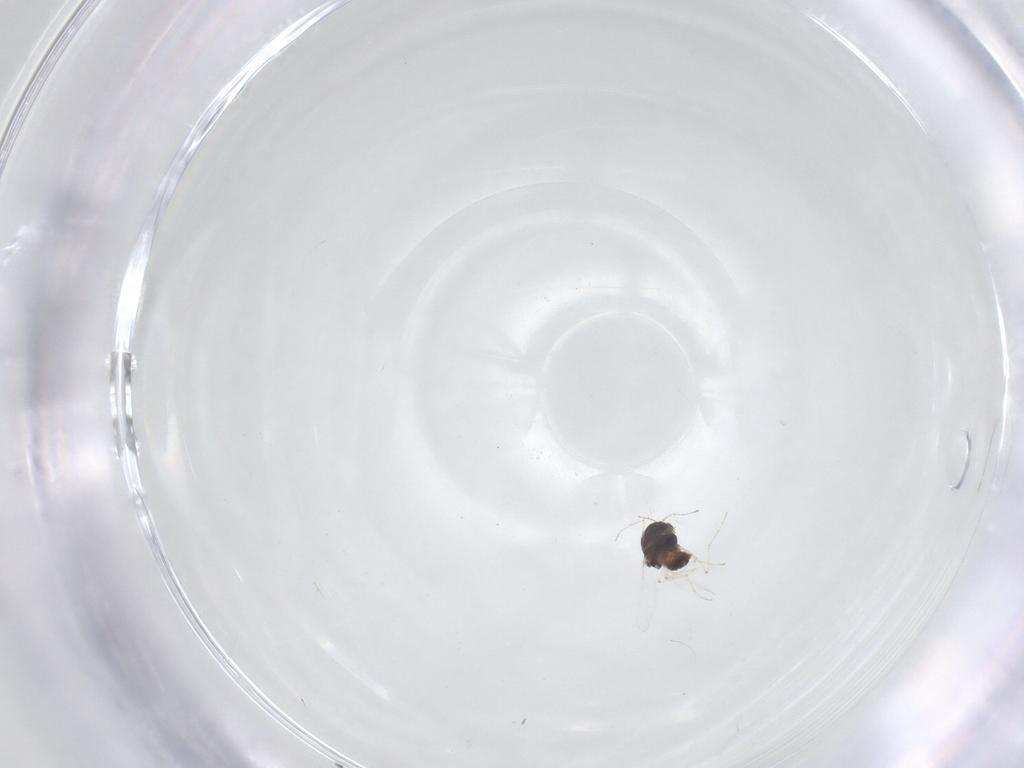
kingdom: Animalia
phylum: Arthropoda
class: Insecta
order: Diptera
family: Chironomidae
